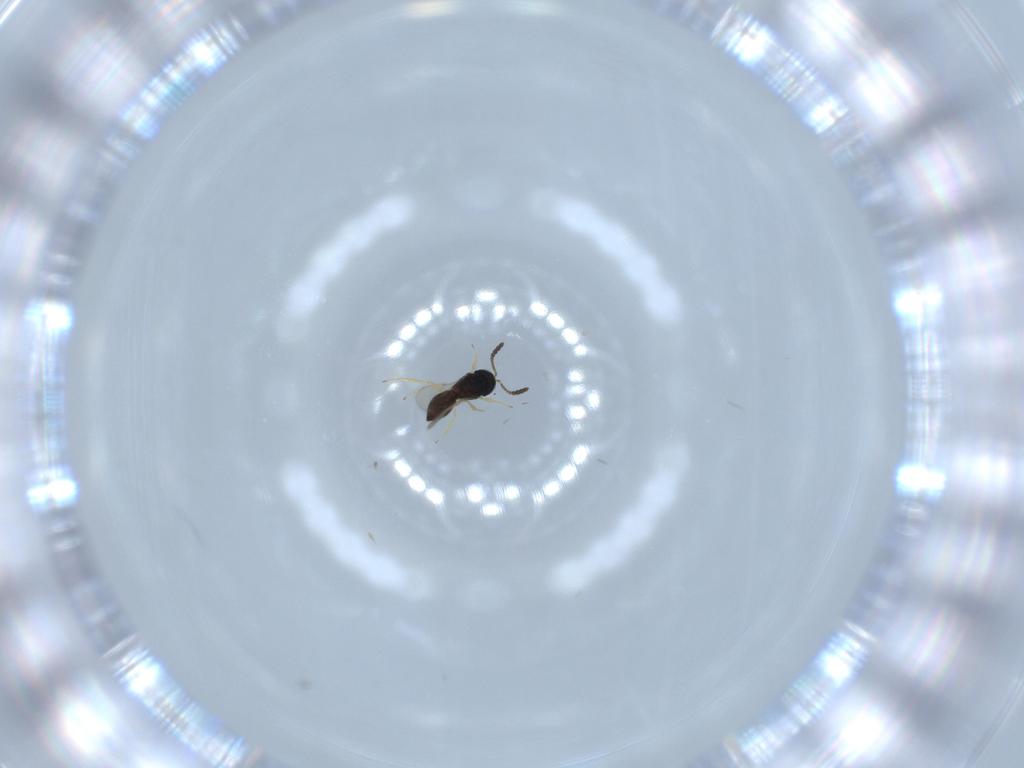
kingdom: Animalia
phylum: Arthropoda
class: Insecta
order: Hymenoptera
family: Scelionidae
